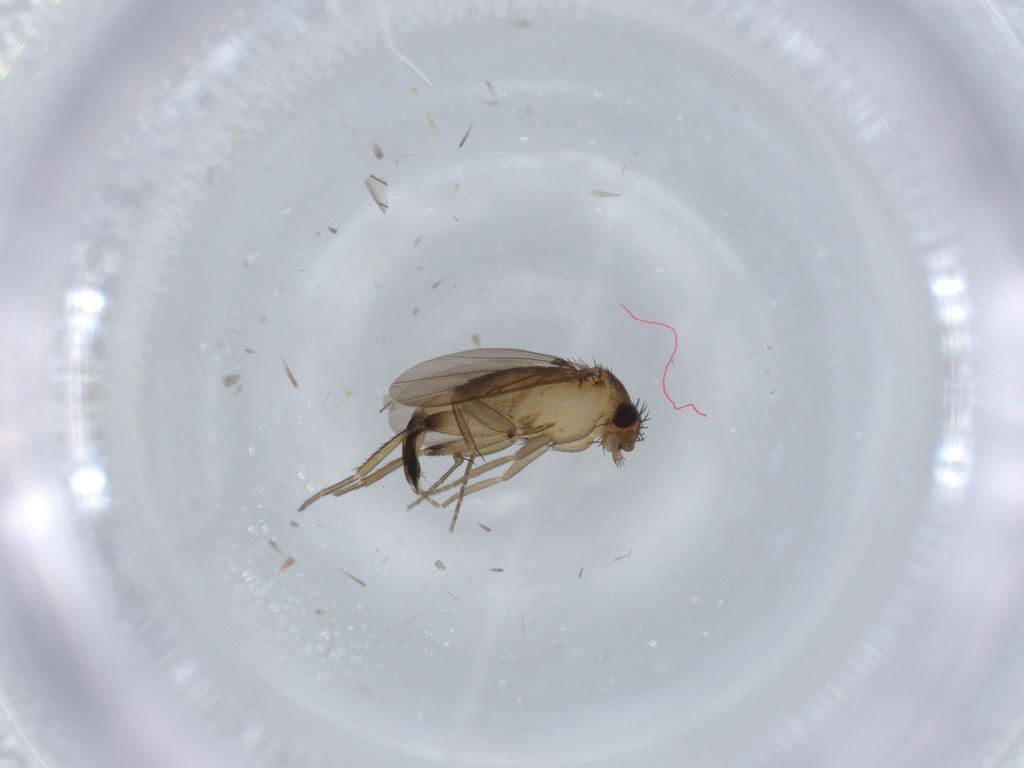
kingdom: Animalia
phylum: Arthropoda
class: Insecta
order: Diptera
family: Phoridae
